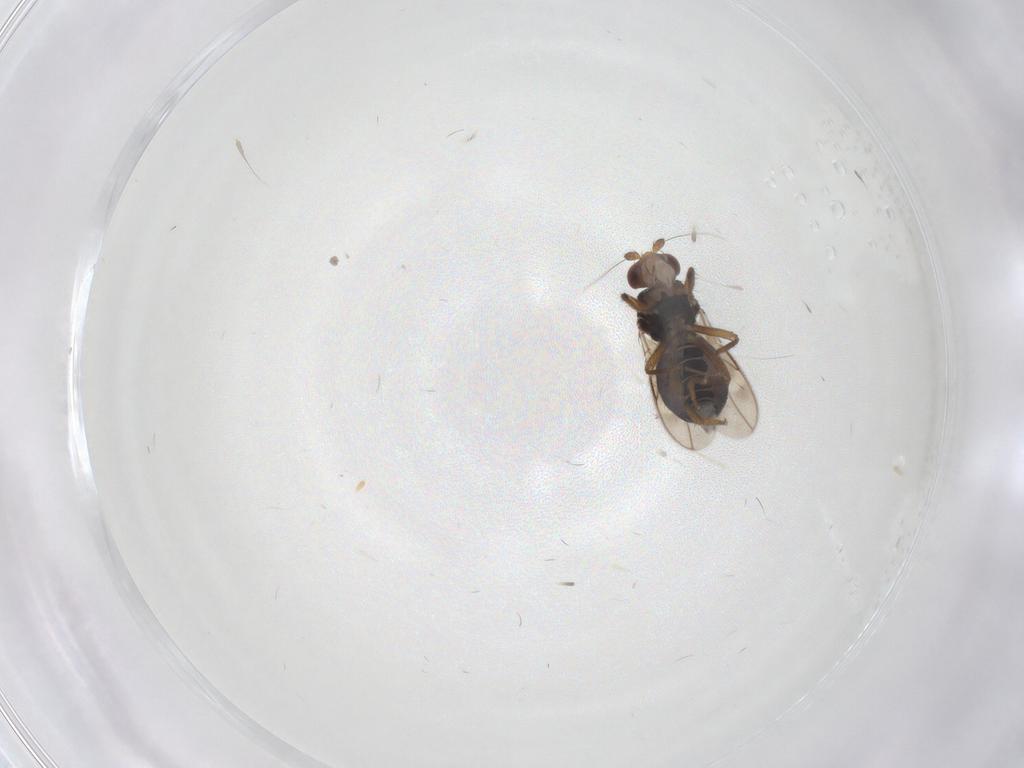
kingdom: Animalia
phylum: Arthropoda
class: Insecta
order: Diptera
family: Sphaeroceridae
